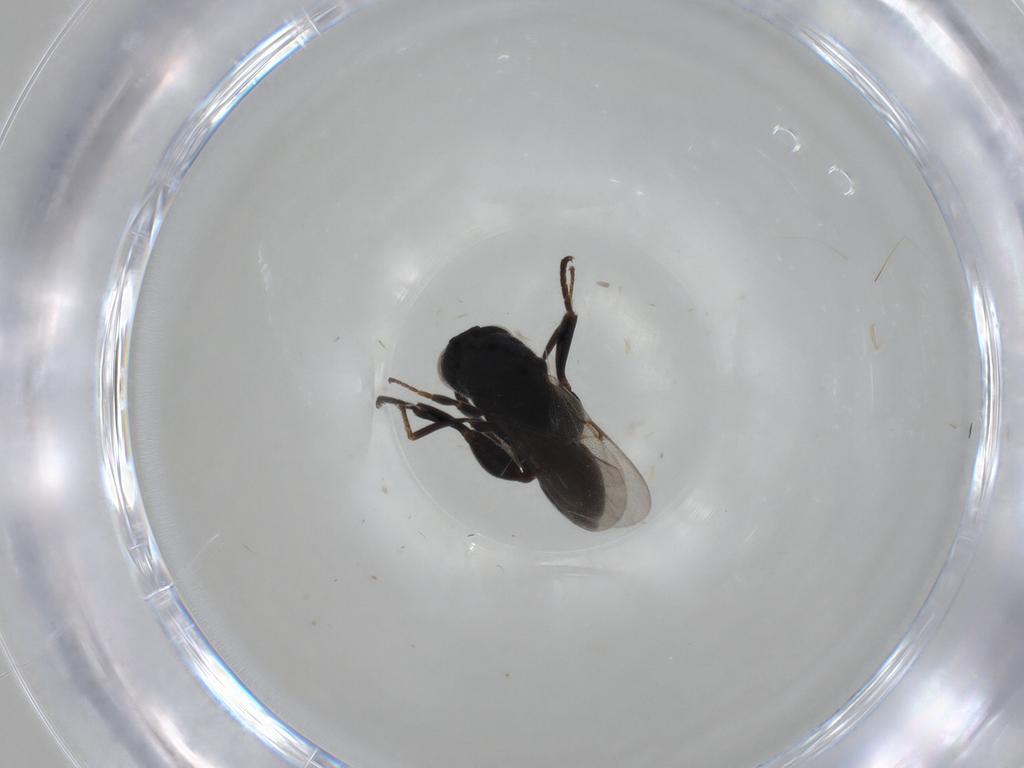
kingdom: Animalia
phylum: Arthropoda
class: Insecta
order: Hymenoptera
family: Chalcididae
